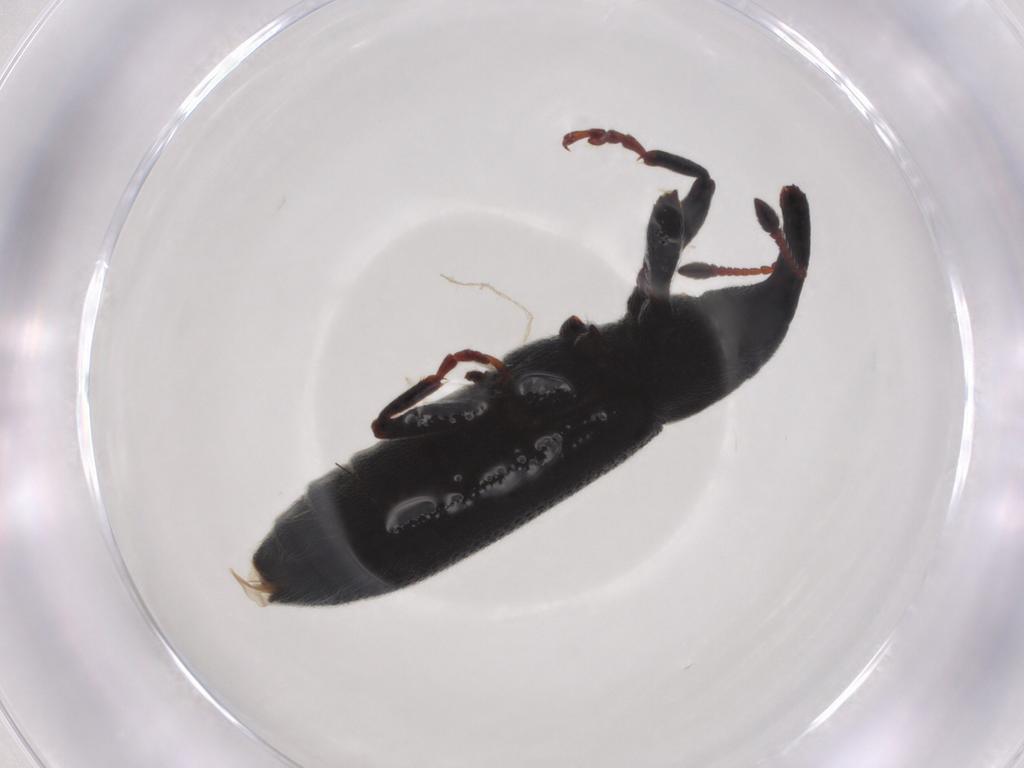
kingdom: Animalia
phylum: Arthropoda
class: Insecta
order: Coleoptera
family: Curculionidae
